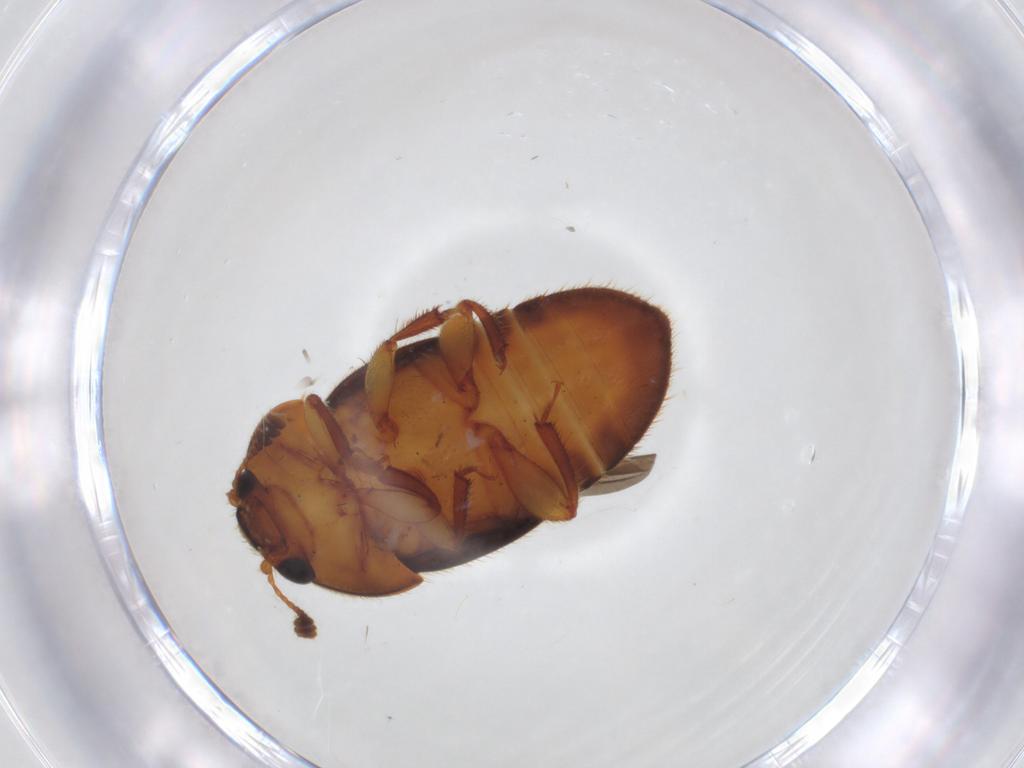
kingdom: Animalia
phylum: Arthropoda
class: Insecta
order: Coleoptera
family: Nitidulidae
